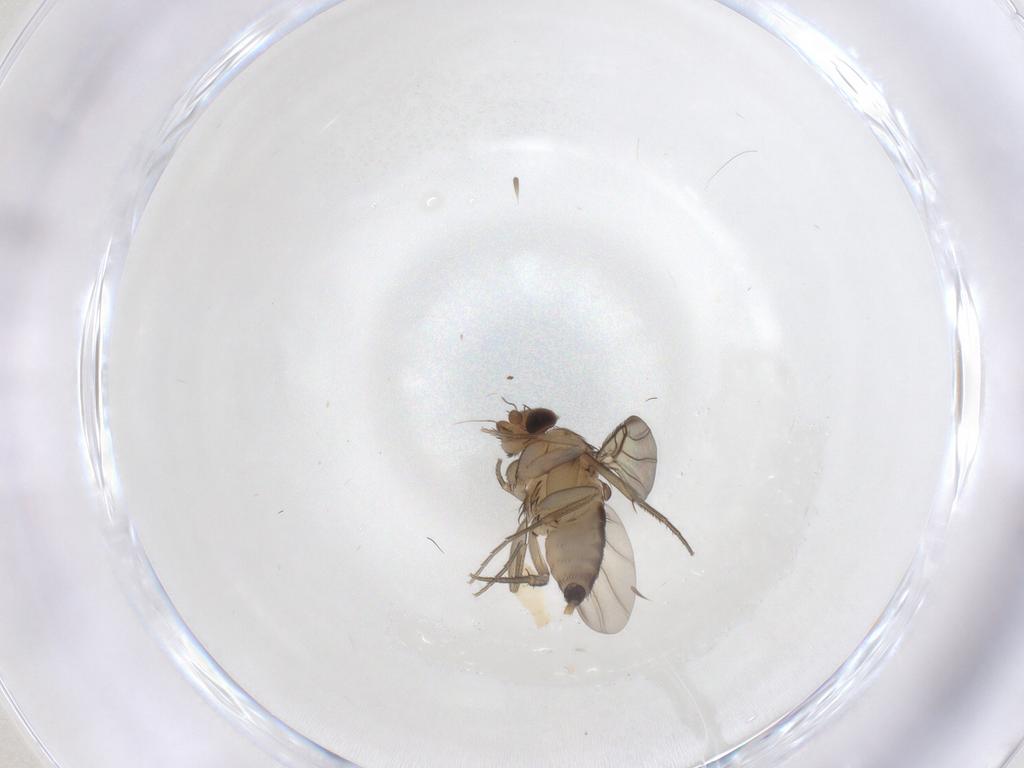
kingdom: Animalia
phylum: Arthropoda
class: Insecta
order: Diptera
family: Phoridae
